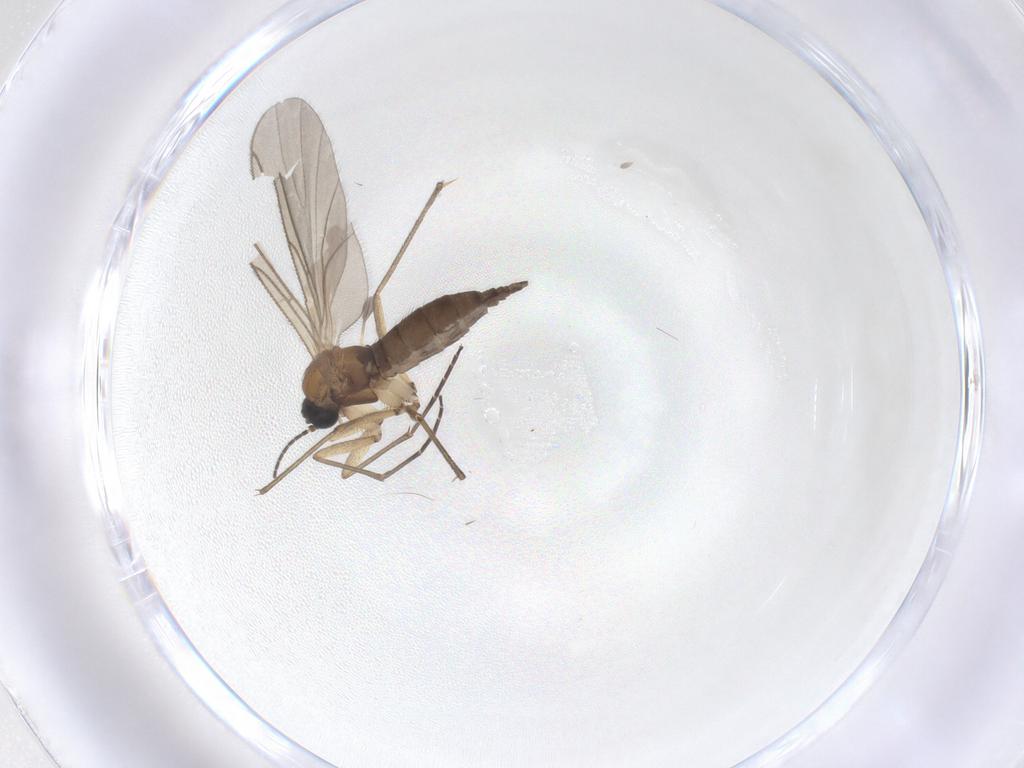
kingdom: Animalia
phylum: Arthropoda
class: Insecta
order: Diptera
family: Sciaridae
